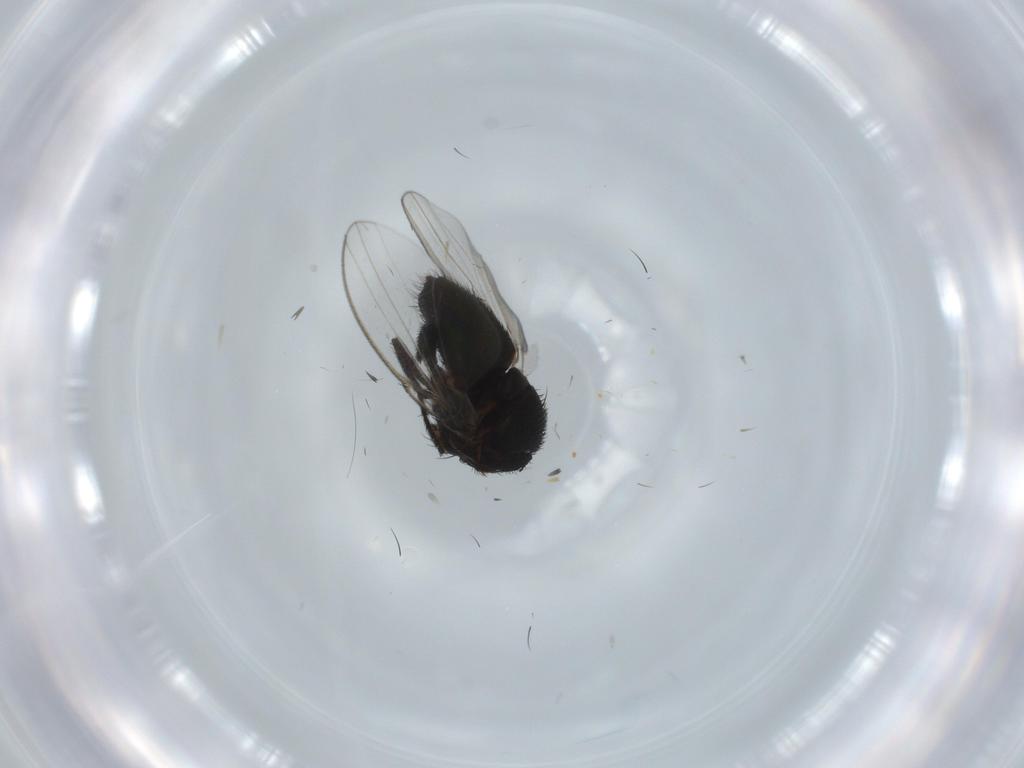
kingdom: Animalia
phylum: Arthropoda
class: Insecta
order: Diptera
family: Milichiidae
